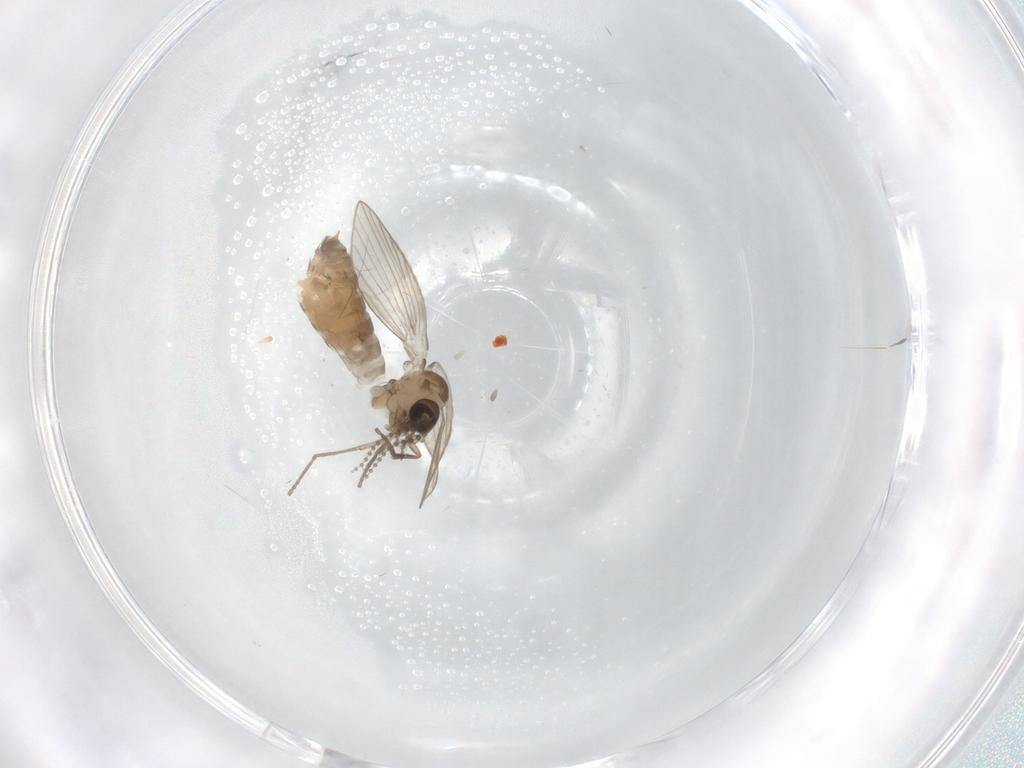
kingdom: Animalia
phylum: Arthropoda
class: Insecta
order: Diptera
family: Psychodidae
